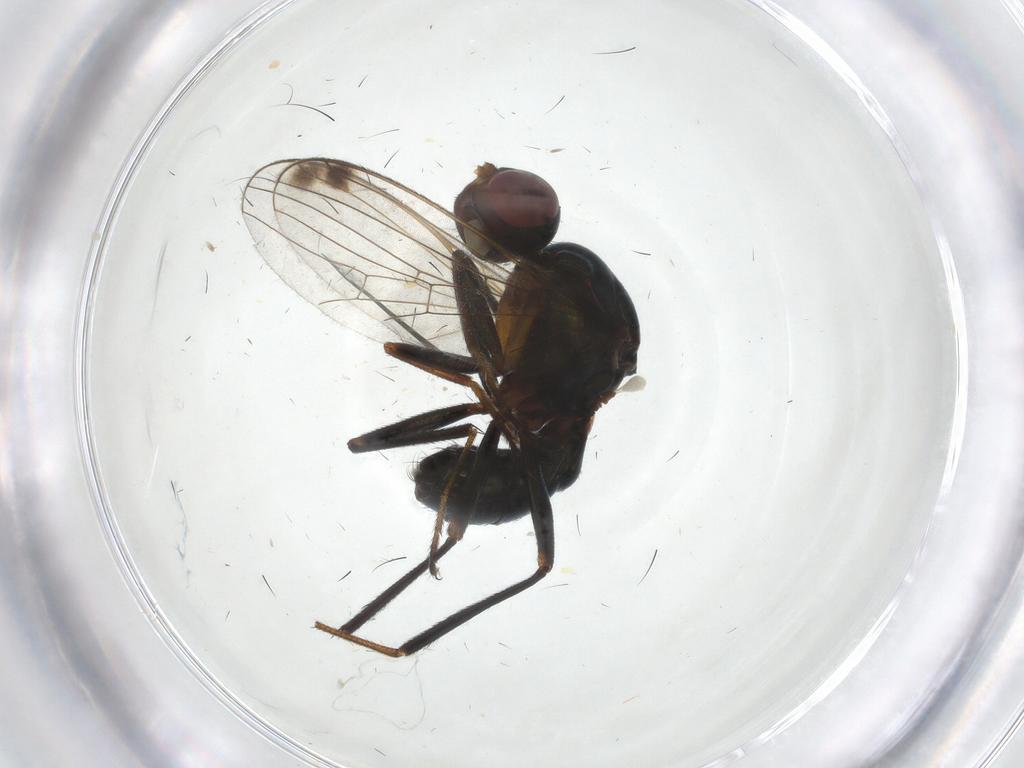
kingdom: Animalia
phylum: Arthropoda
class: Insecta
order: Diptera
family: Sepsidae
